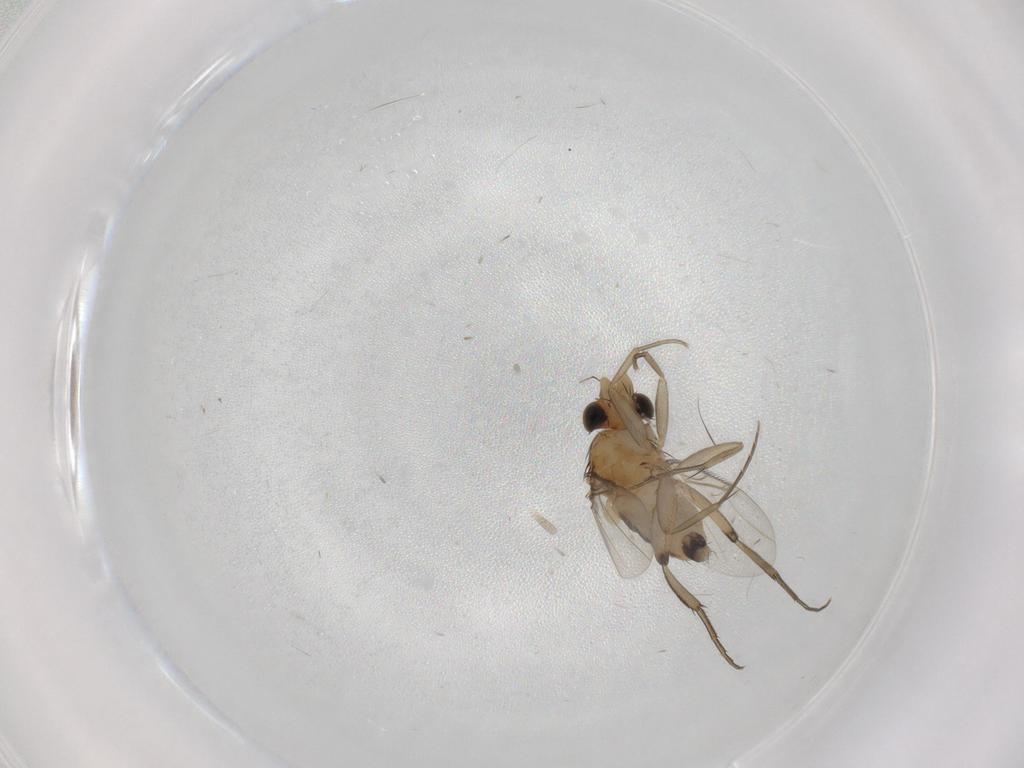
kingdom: Animalia
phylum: Arthropoda
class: Insecta
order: Diptera
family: Phoridae
